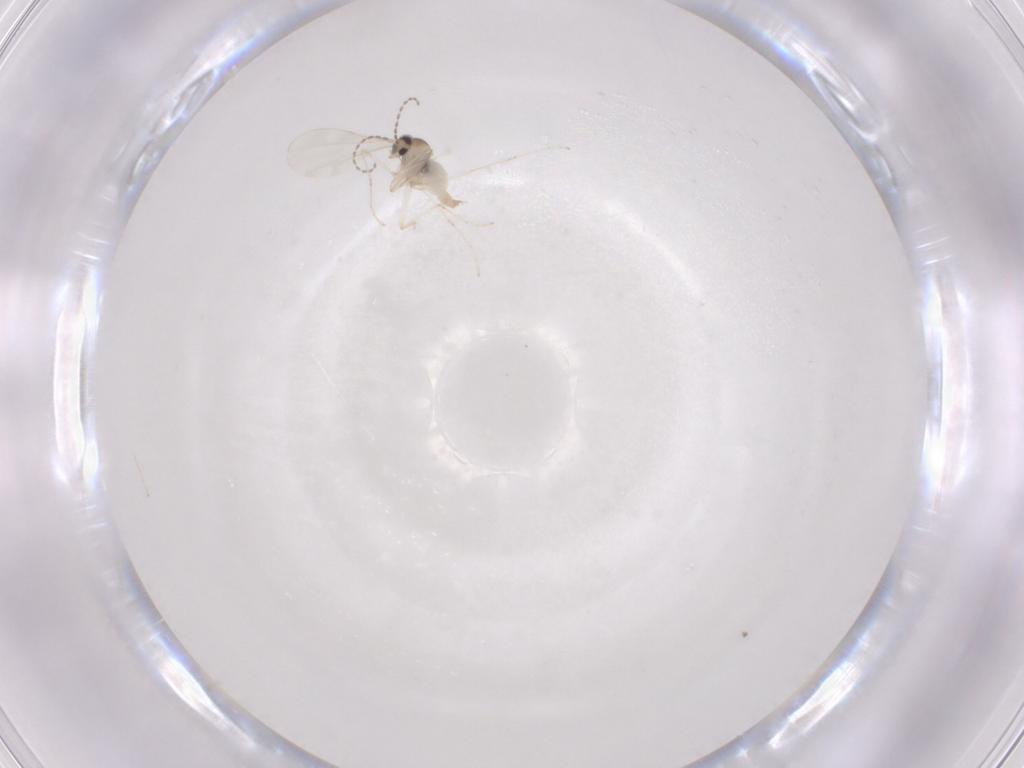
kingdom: Animalia
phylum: Arthropoda
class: Insecta
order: Diptera
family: Cecidomyiidae
